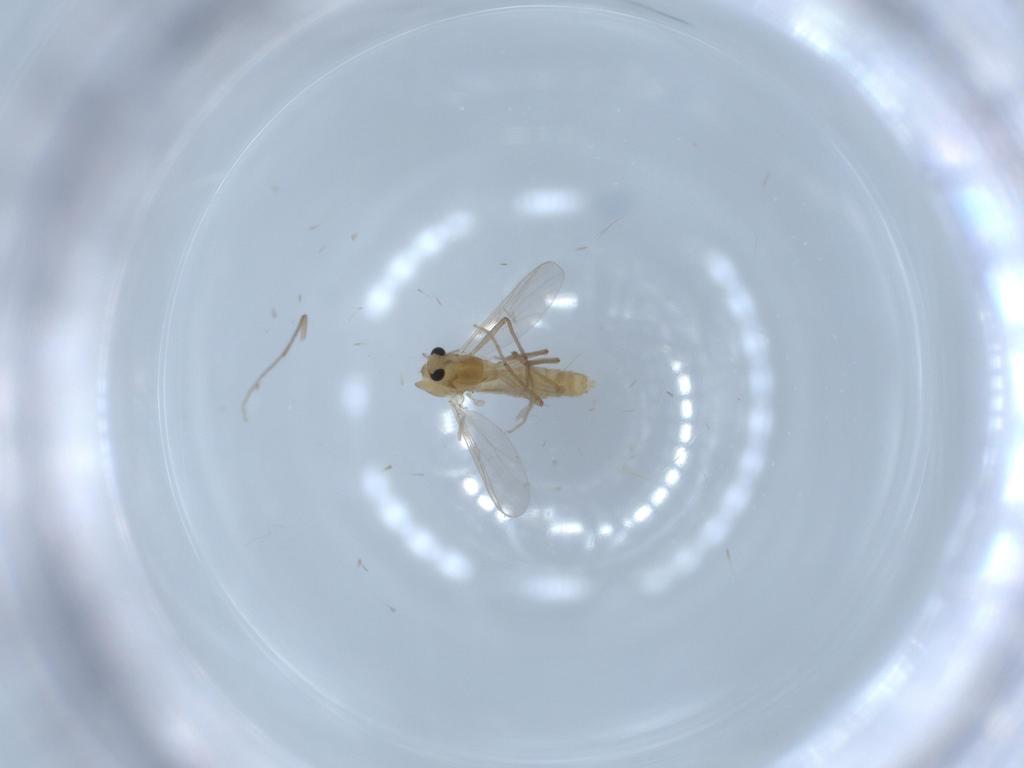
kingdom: Animalia
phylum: Arthropoda
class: Insecta
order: Diptera
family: Chironomidae
